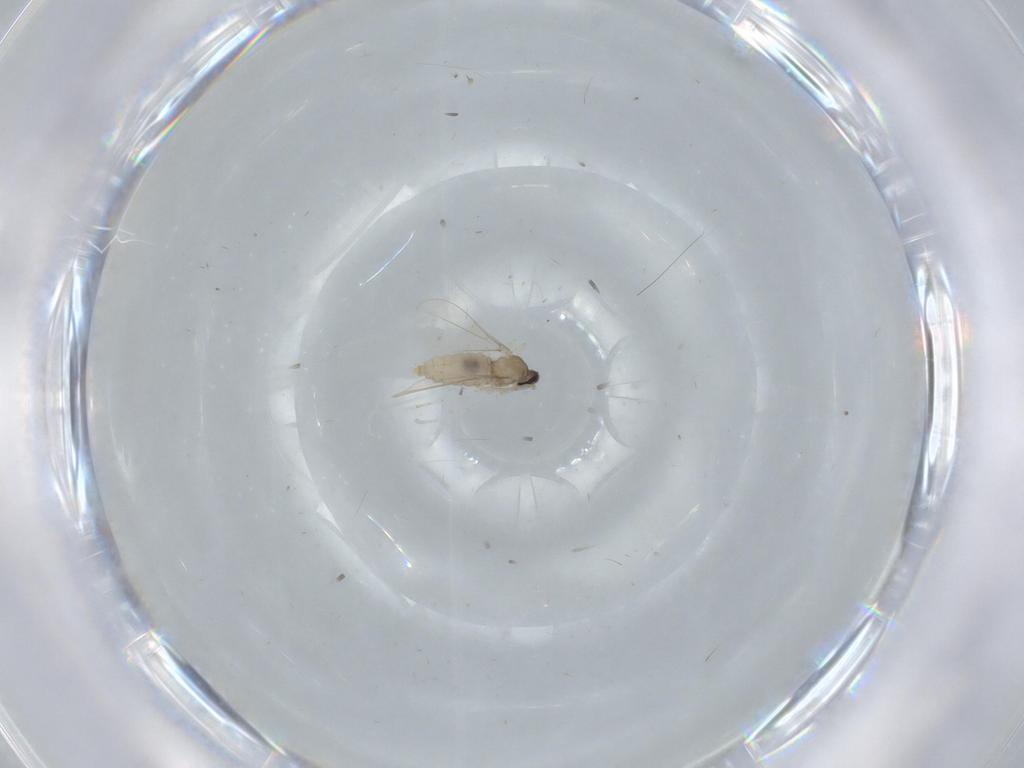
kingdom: Animalia
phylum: Arthropoda
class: Insecta
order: Diptera
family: Cecidomyiidae
